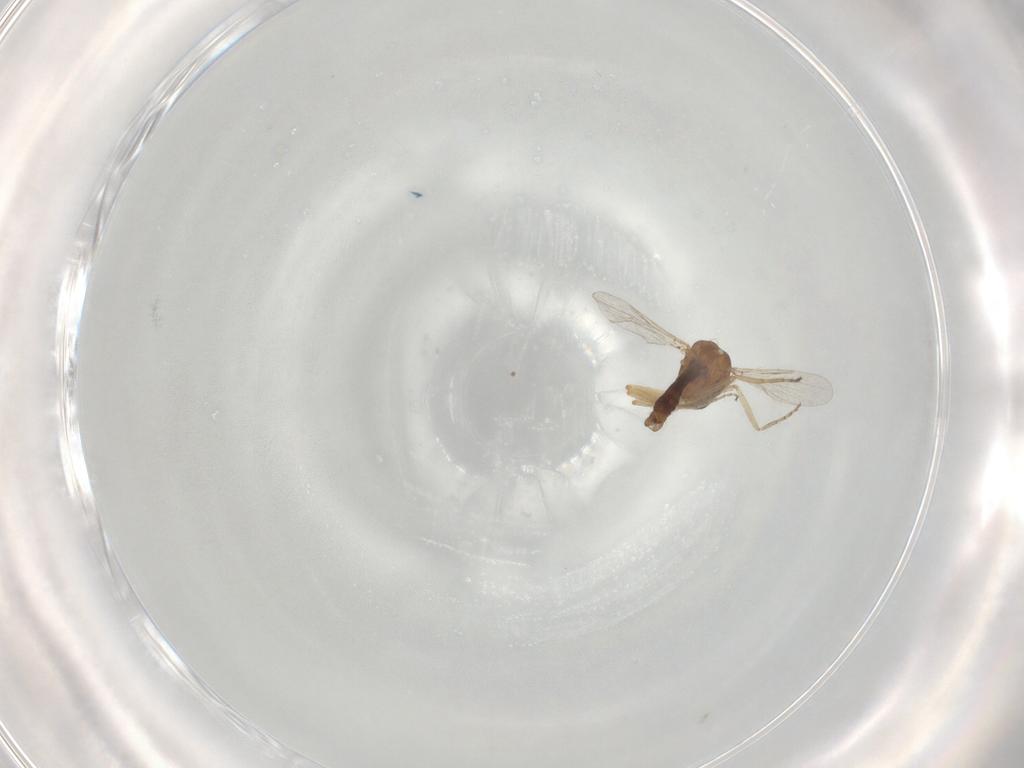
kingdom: Animalia
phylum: Arthropoda
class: Insecta
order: Diptera
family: Ceratopogonidae
